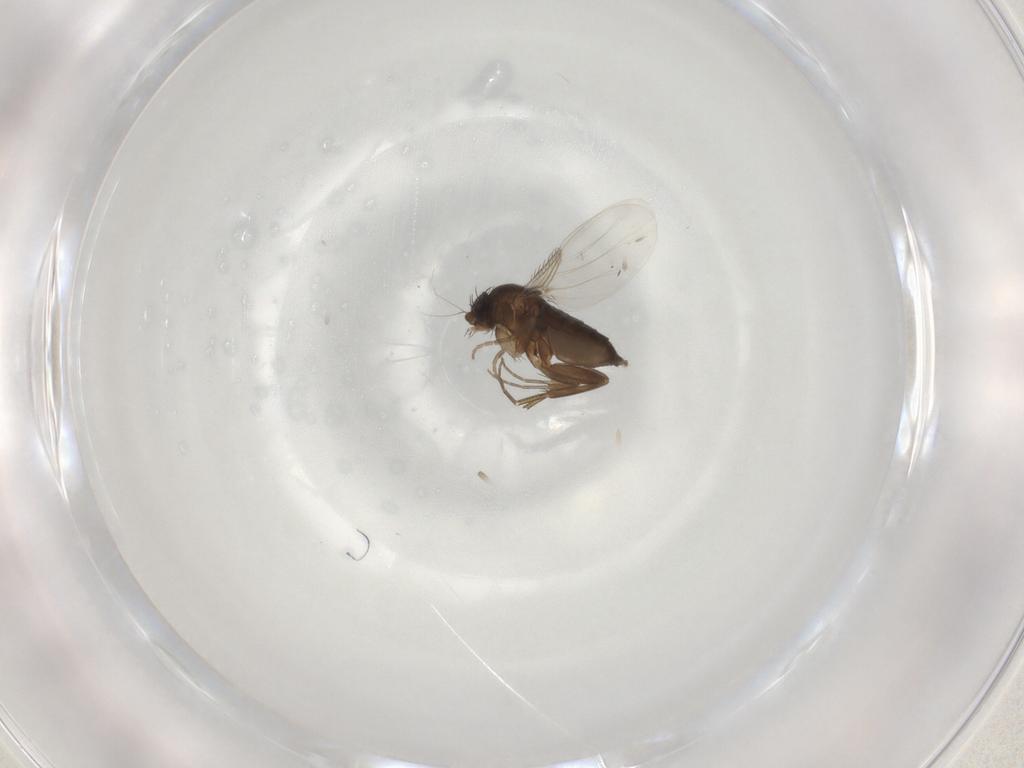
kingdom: Animalia
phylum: Arthropoda
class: Insecta
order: Diptera
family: Phoridae
